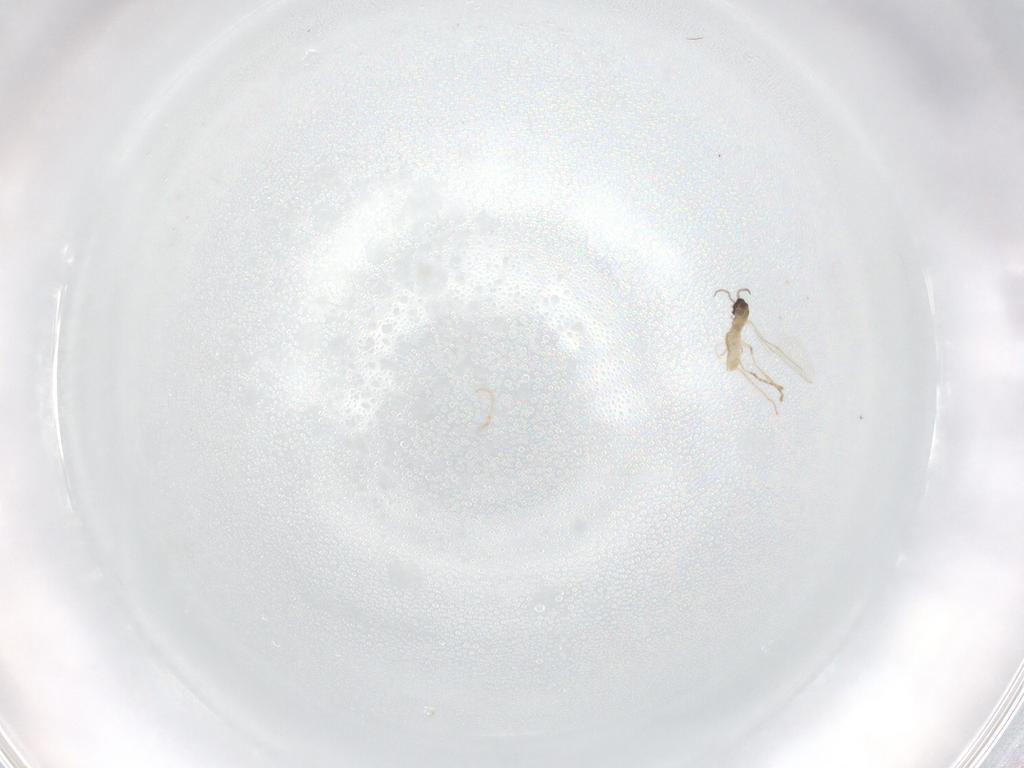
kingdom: Animalia
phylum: Arthropoda
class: Insecta
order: Diptera
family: Cecidomyiidae
